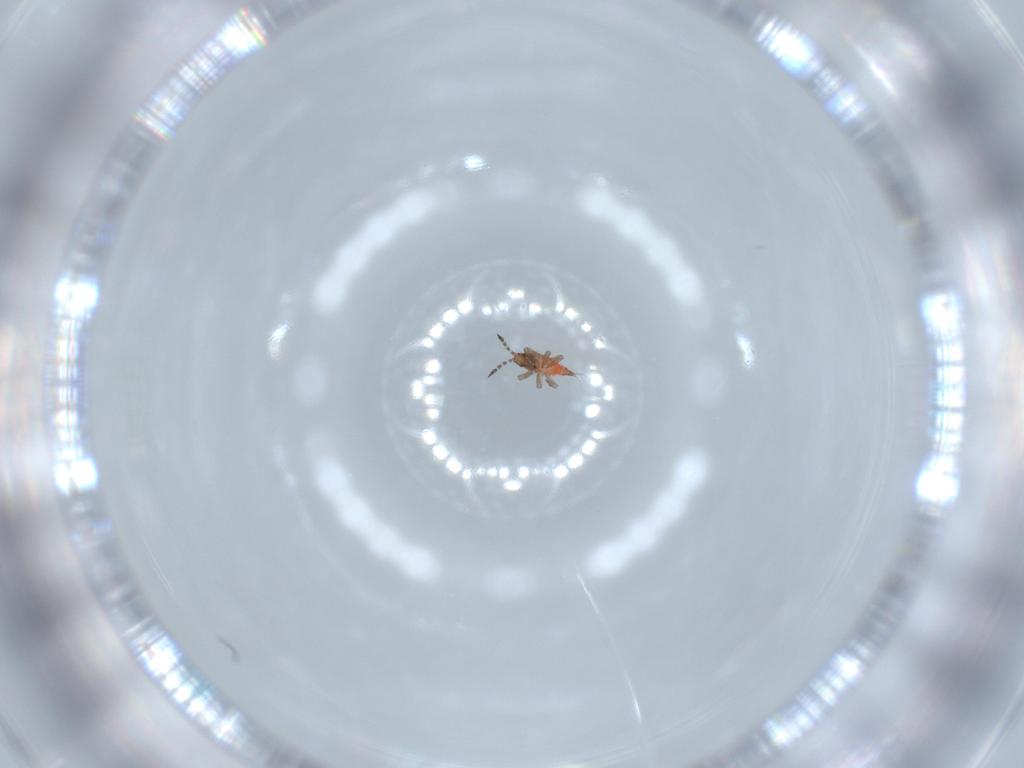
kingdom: Animalia
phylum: Arthropoda
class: Insecta
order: Thysanoptera
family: Phlaeothripidae
